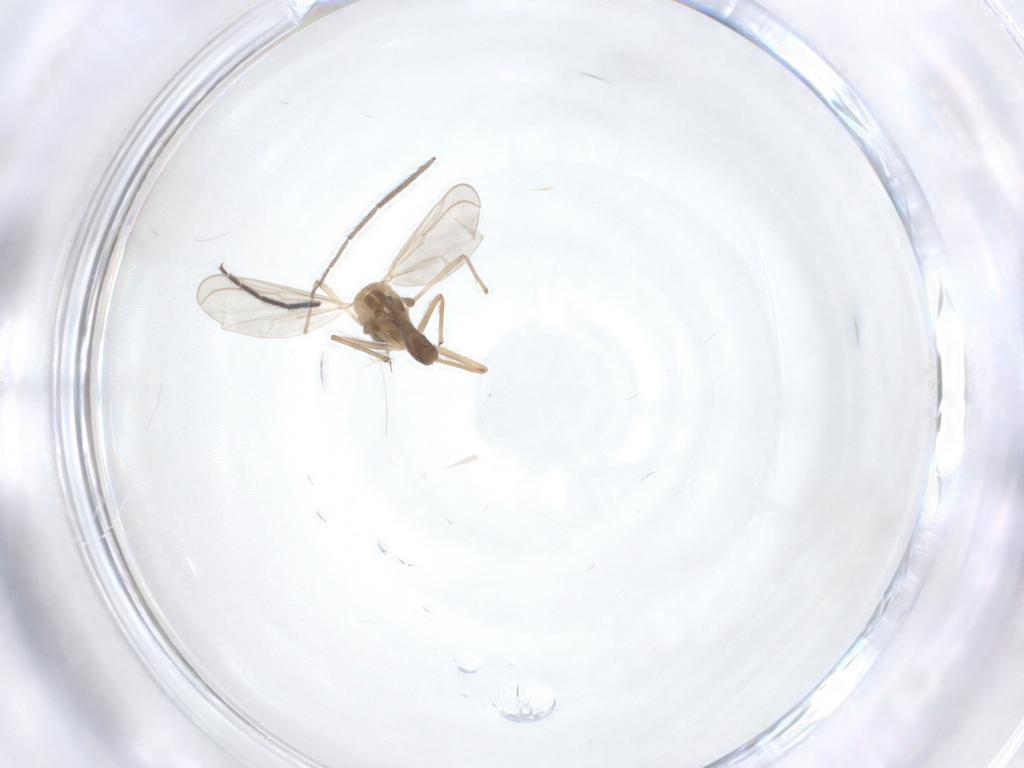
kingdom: Animalia
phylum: Arthropoda
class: Insecta
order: Diptera
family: Chironomidae
